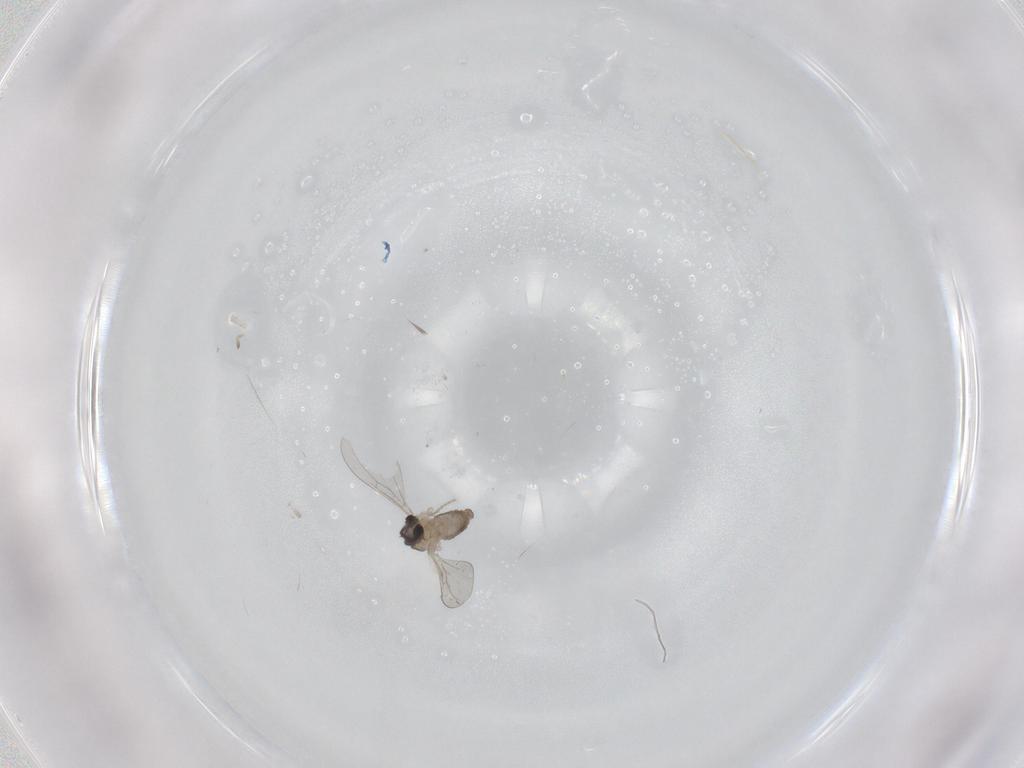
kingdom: Animalia
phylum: Arthropoda
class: Insecta
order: Diptera
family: Cecidomyiidae
